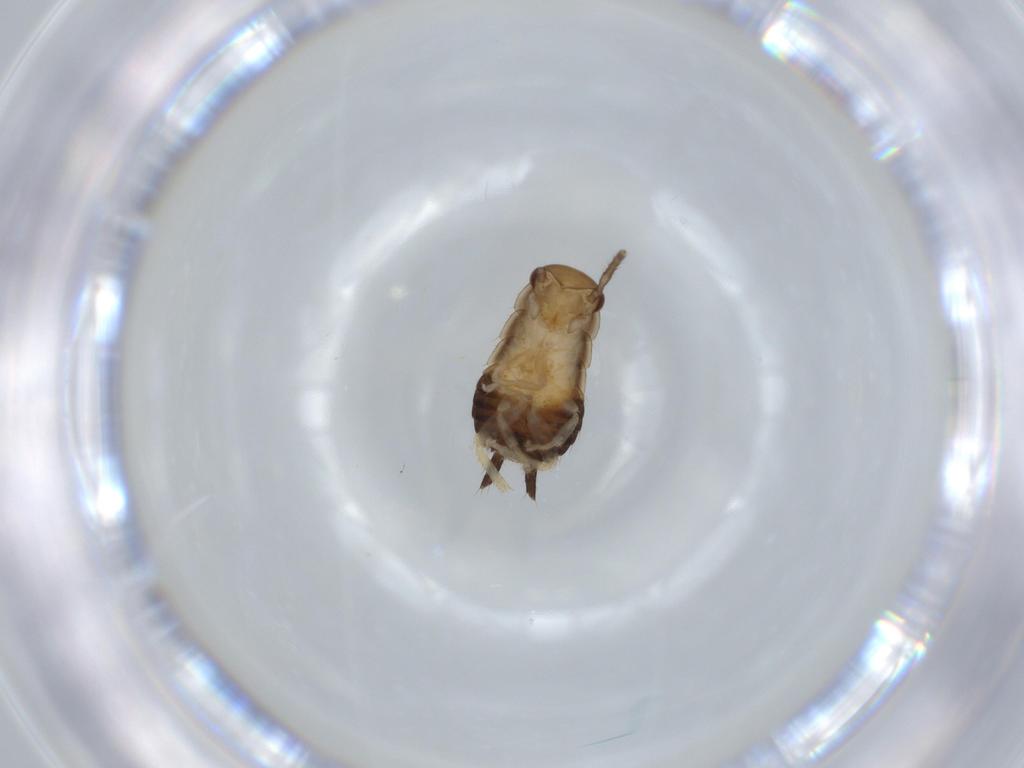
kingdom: Animalia
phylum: Arthropoda
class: Insecta
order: Blattodea
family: Ectobiidae
